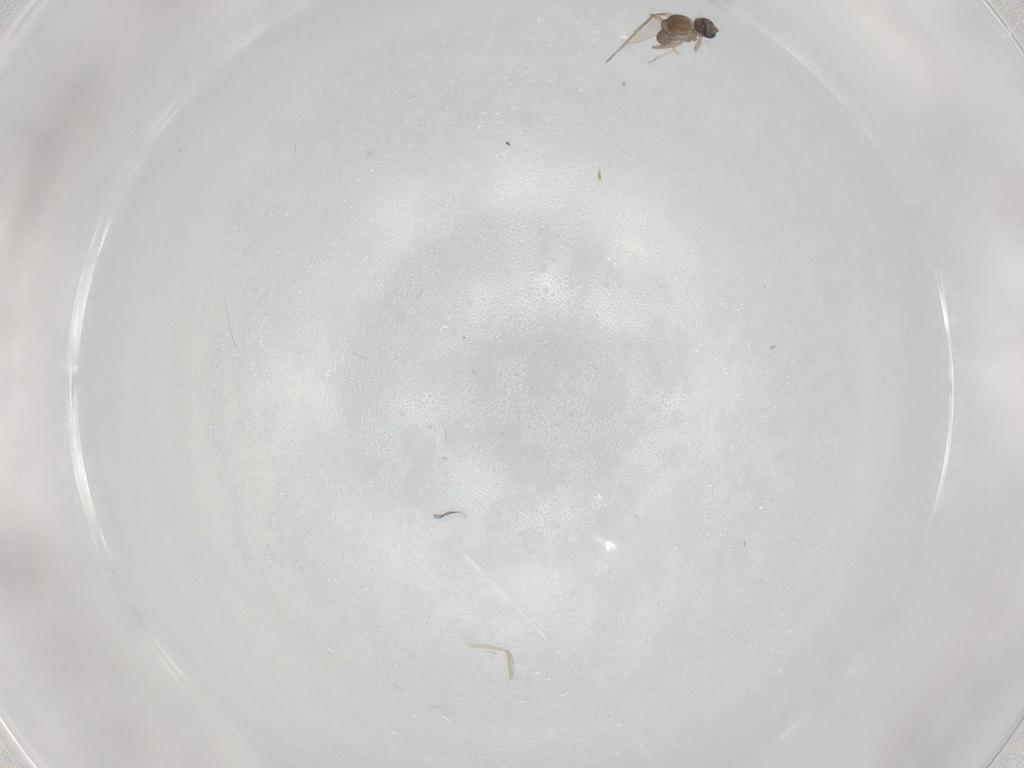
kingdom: Animalia
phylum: Arthropoda
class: Insecta
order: Diptera
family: Cecidomyiidae
